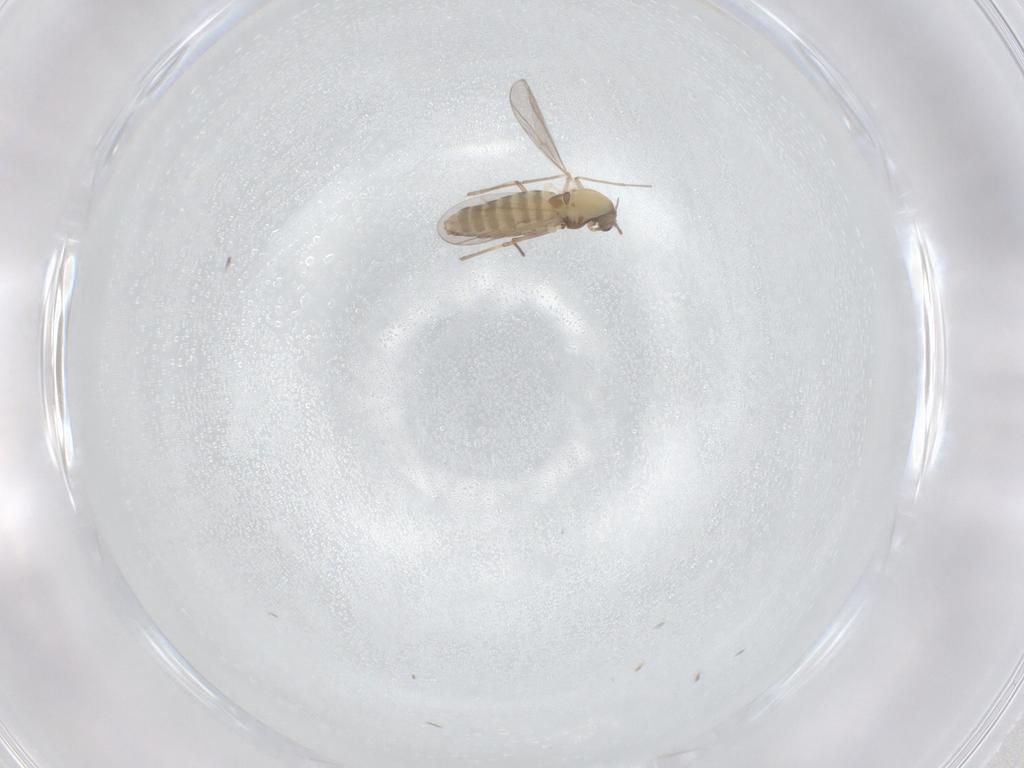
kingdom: Animalia
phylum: Arthropoda
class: Insecta
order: Diptera
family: Chironomidae
